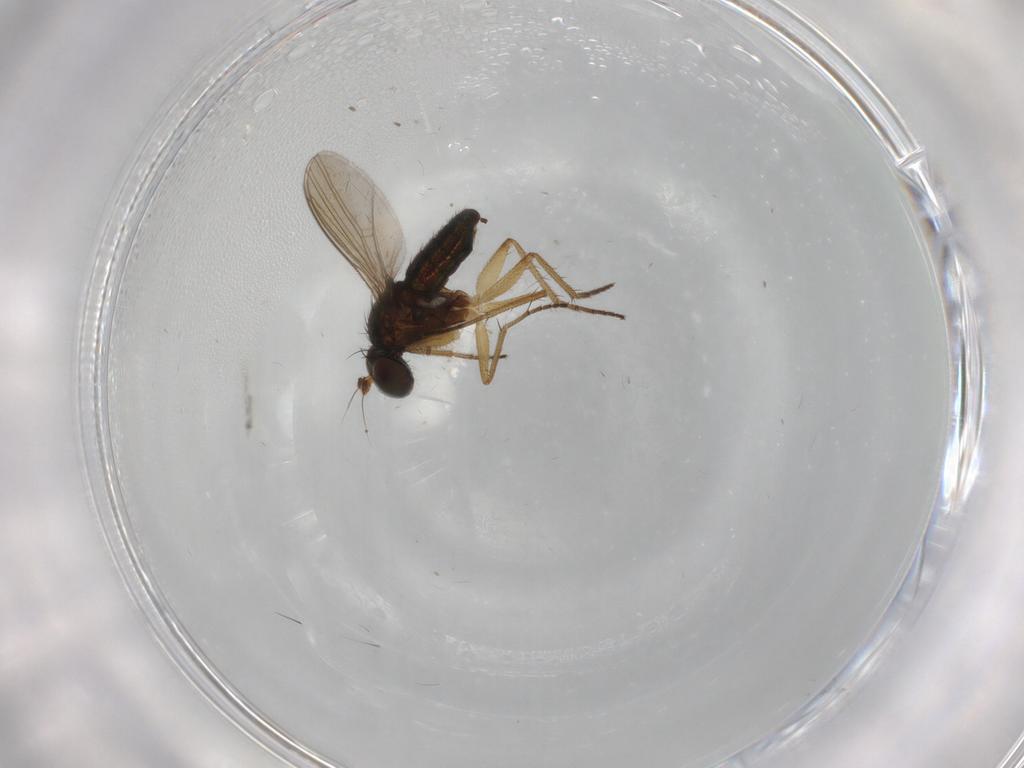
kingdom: Animalia
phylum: Arthropoda
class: Insecta
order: Diptera
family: Dolichopodidae
